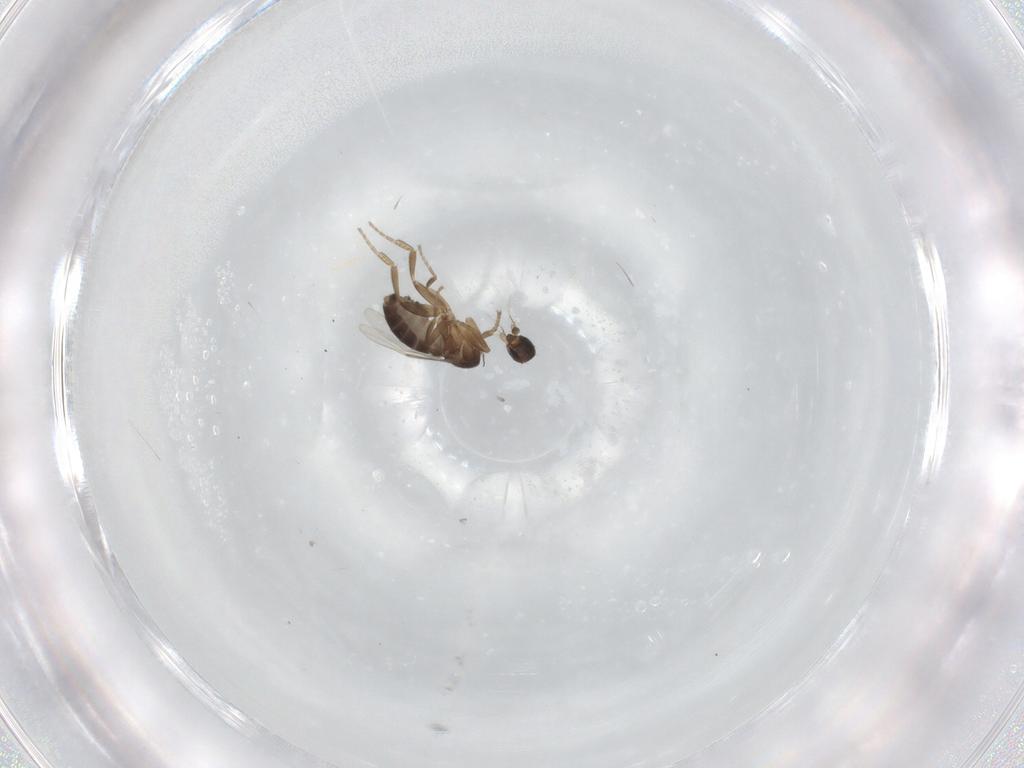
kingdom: Animalia
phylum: Arthropoda
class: Insecta
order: Diptera
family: Phoridae
